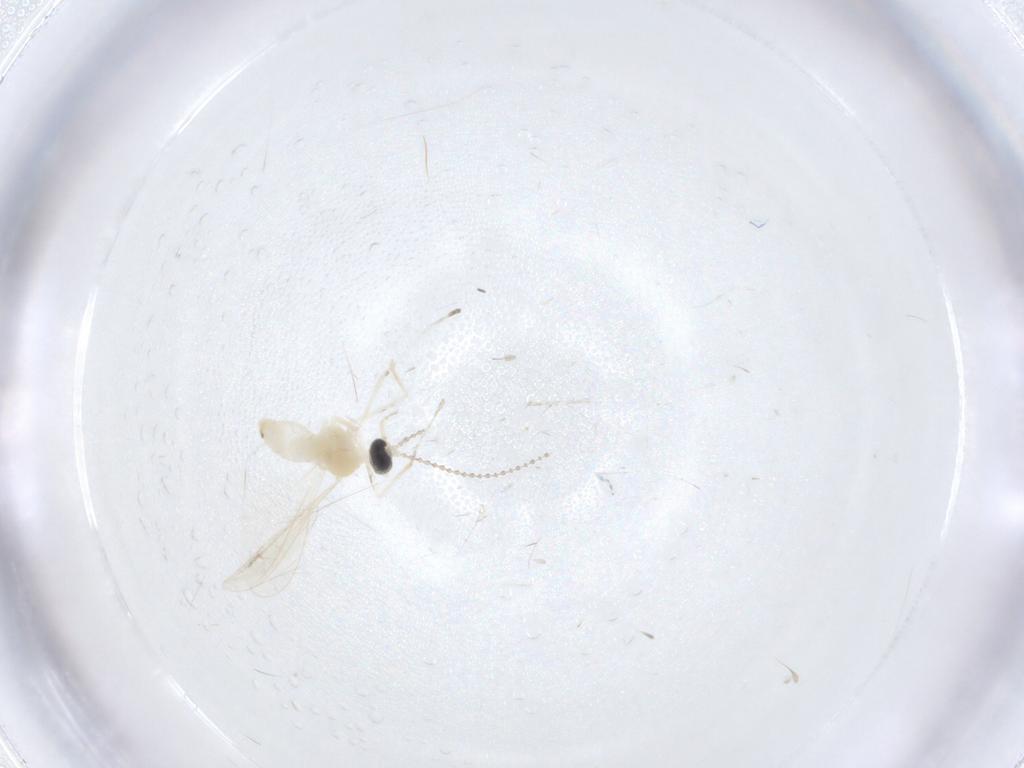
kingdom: Animalia
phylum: Arthropoda
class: Insecta
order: Diptera
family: Cecidomyiidae
